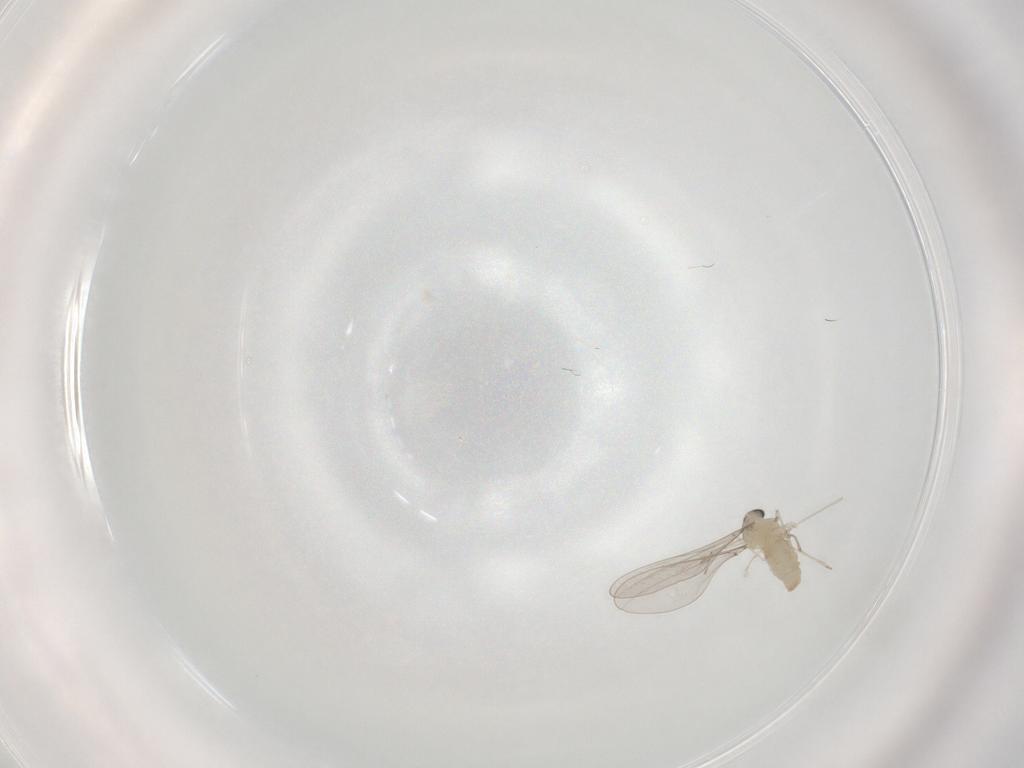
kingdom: Animalia
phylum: Arthropoda
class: Insecta
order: Diptera
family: Cecidomyiidae
